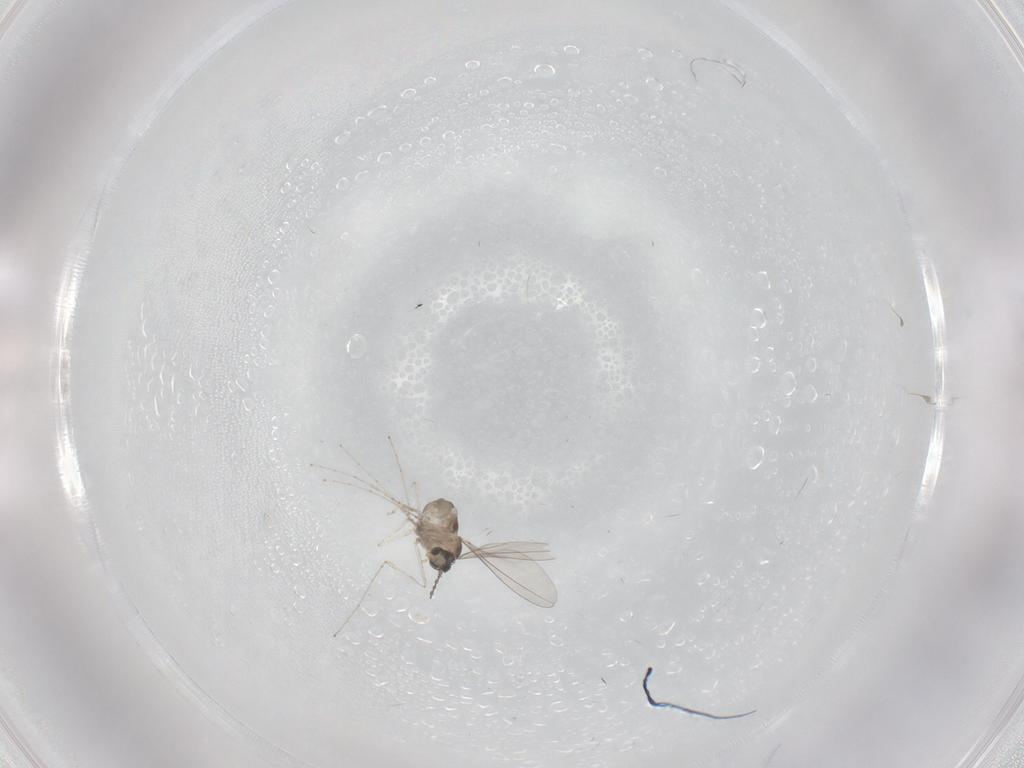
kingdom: Animalia
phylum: Arthropoda
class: Insecta
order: Diptera
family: Cecidomyiidae
